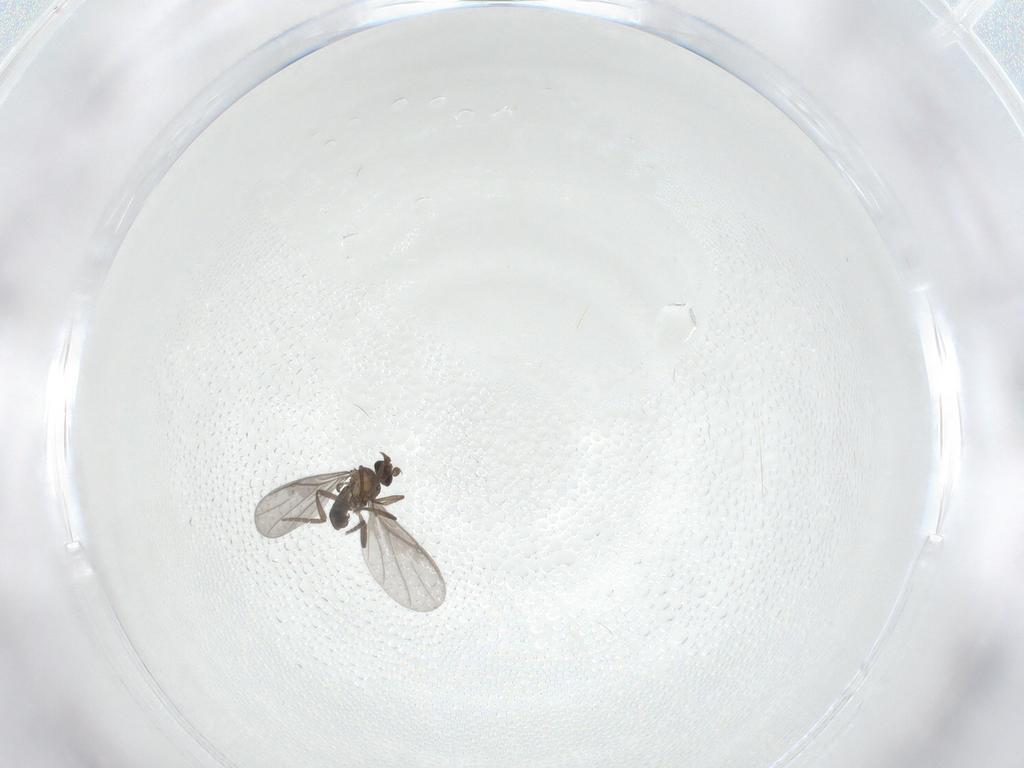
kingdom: Animalia
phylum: Arthropoda
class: Insecta
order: Diptera
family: Phoridae
